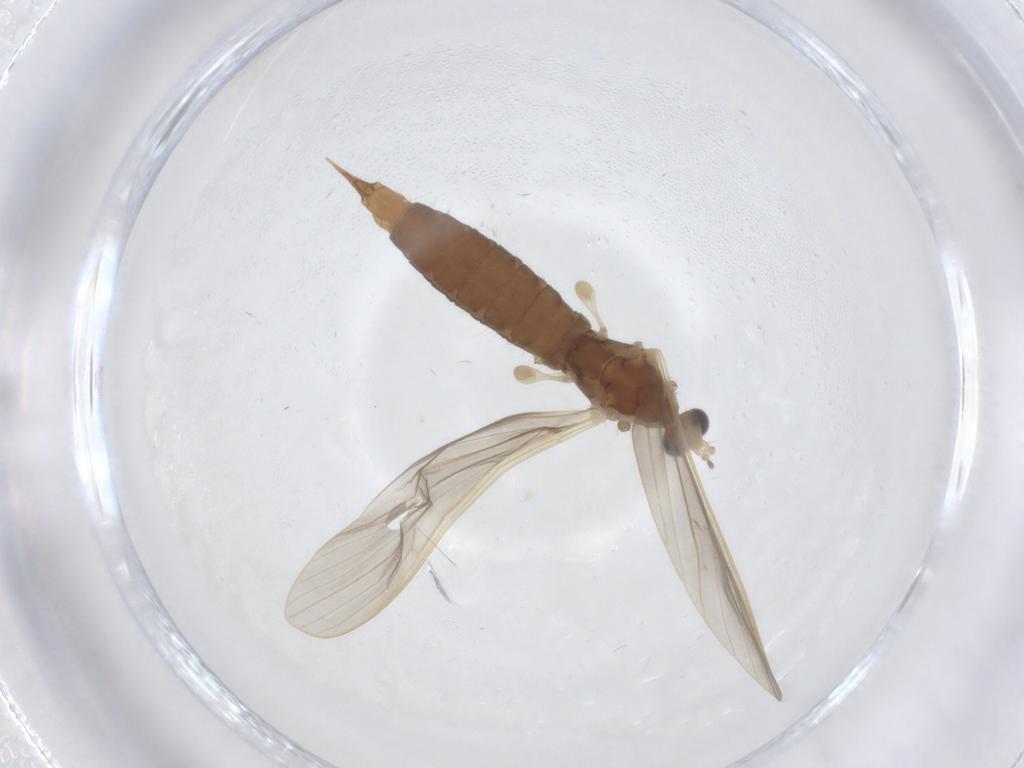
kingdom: Animalia
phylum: Arthropoda
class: Insecta
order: Diptera
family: Limoniidae
